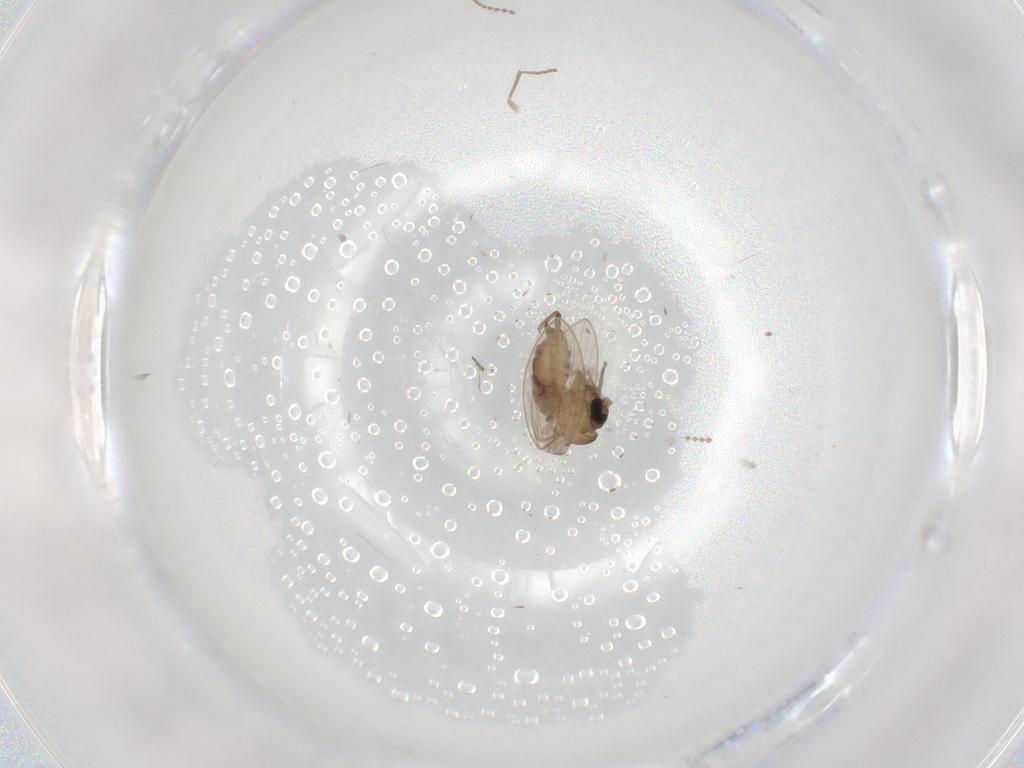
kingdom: Animalia
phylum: Arthropoda
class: Insecta
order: Diptera
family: Psychodidae
